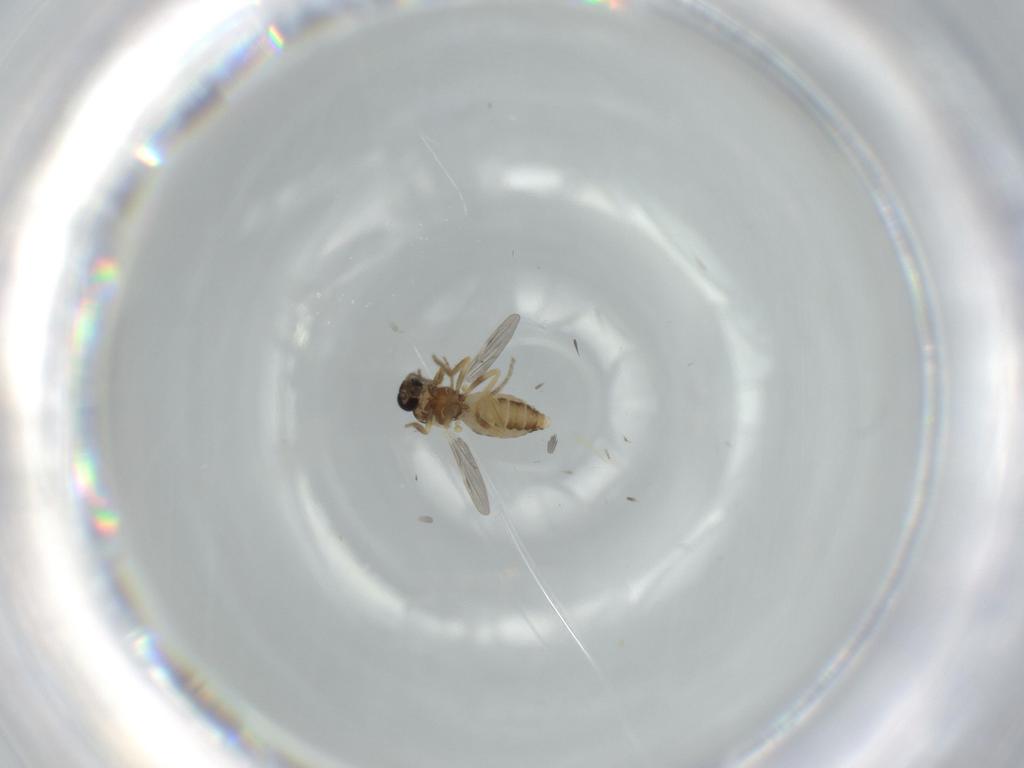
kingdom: Animalia
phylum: Arthropoda
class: Insecta
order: Diptera
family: Ceratopogonidae
